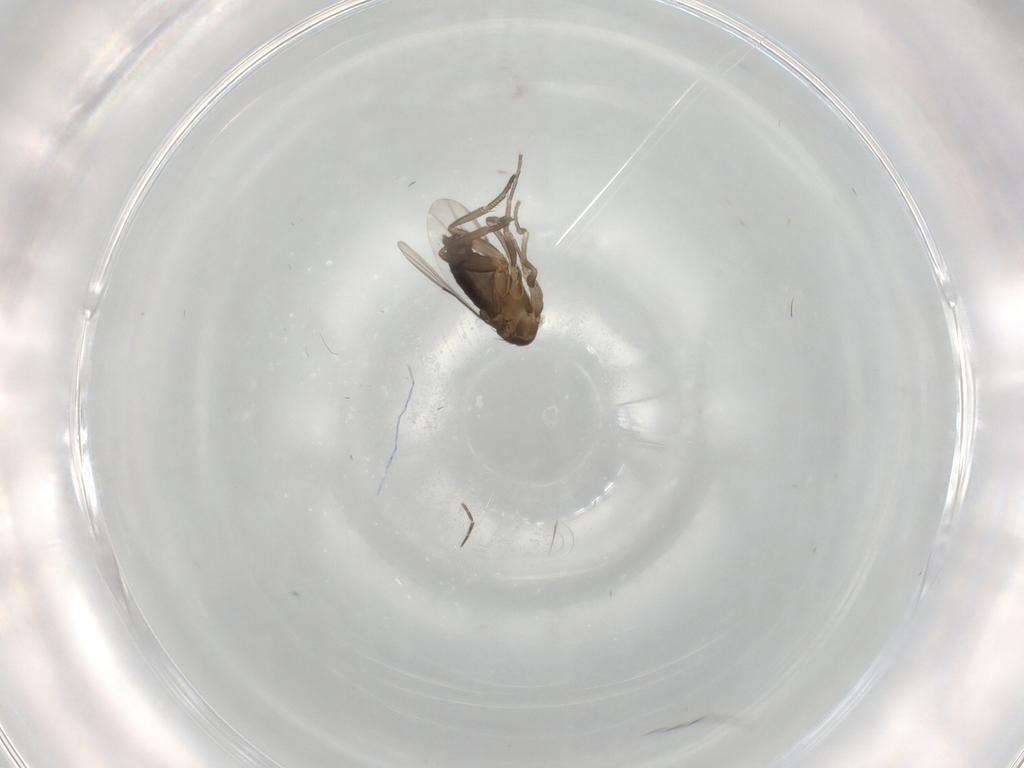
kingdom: Animalia
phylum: Arthropoda
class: Insecta
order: Diptera
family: Phoridae
